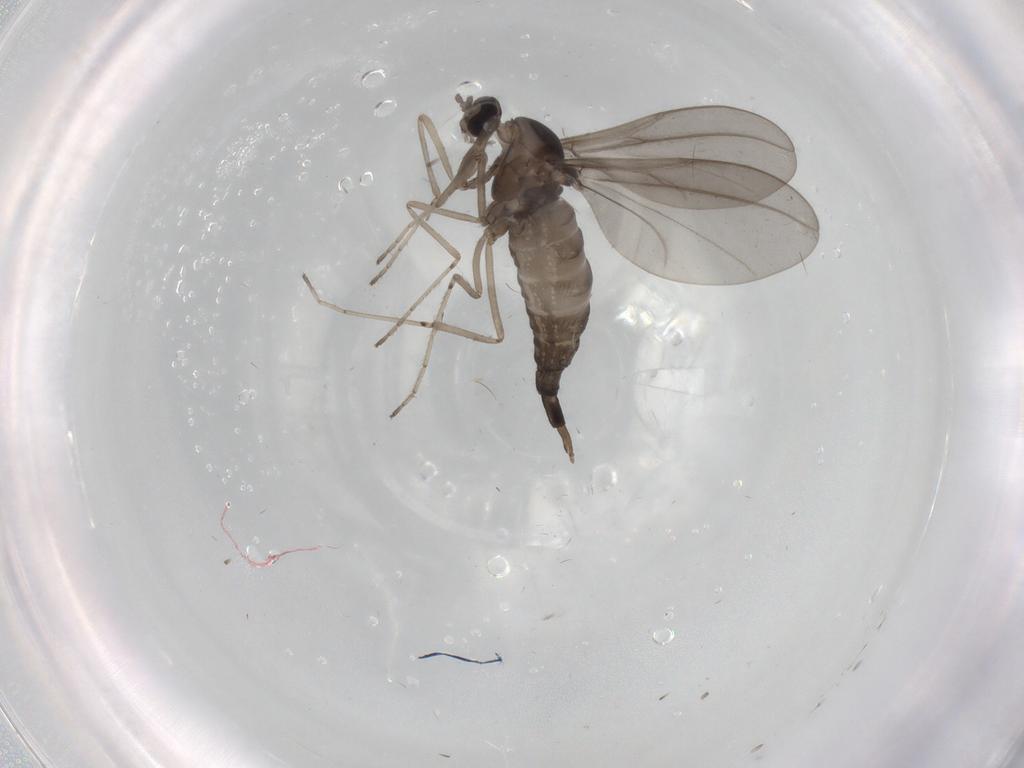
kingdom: Animalia
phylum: Arthropoda
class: Insecta
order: Diptera
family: Cecidomyiidae
